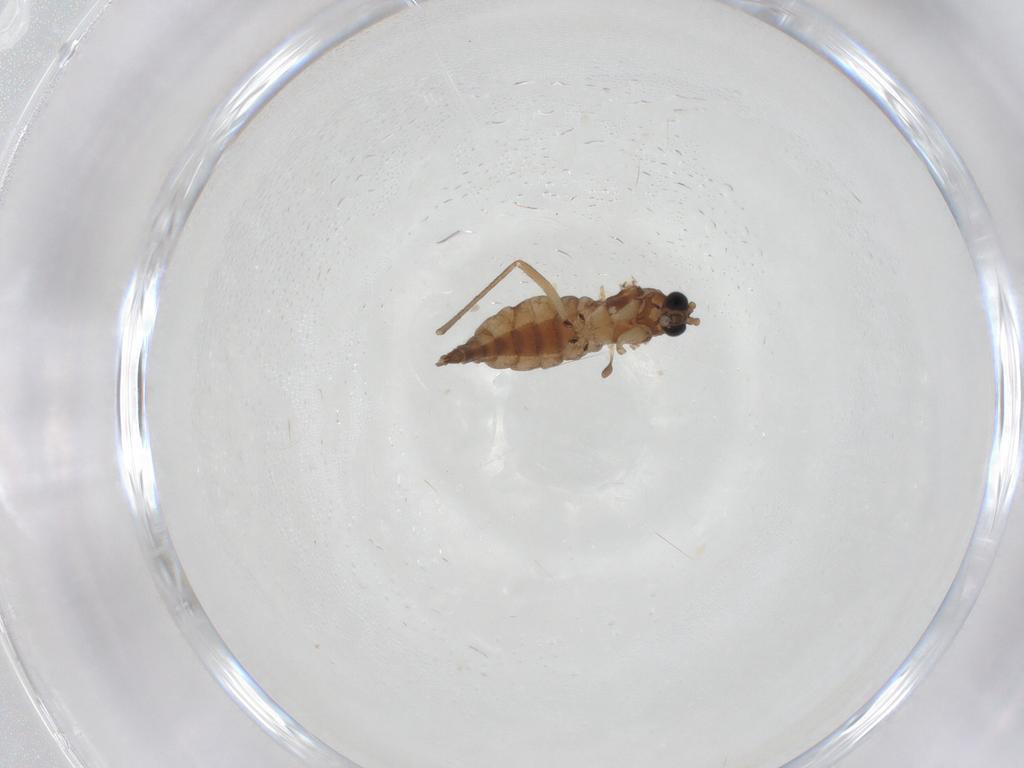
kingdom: Animalia
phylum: Arthropoda
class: Insecta
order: Diptera
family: Sciaridae
